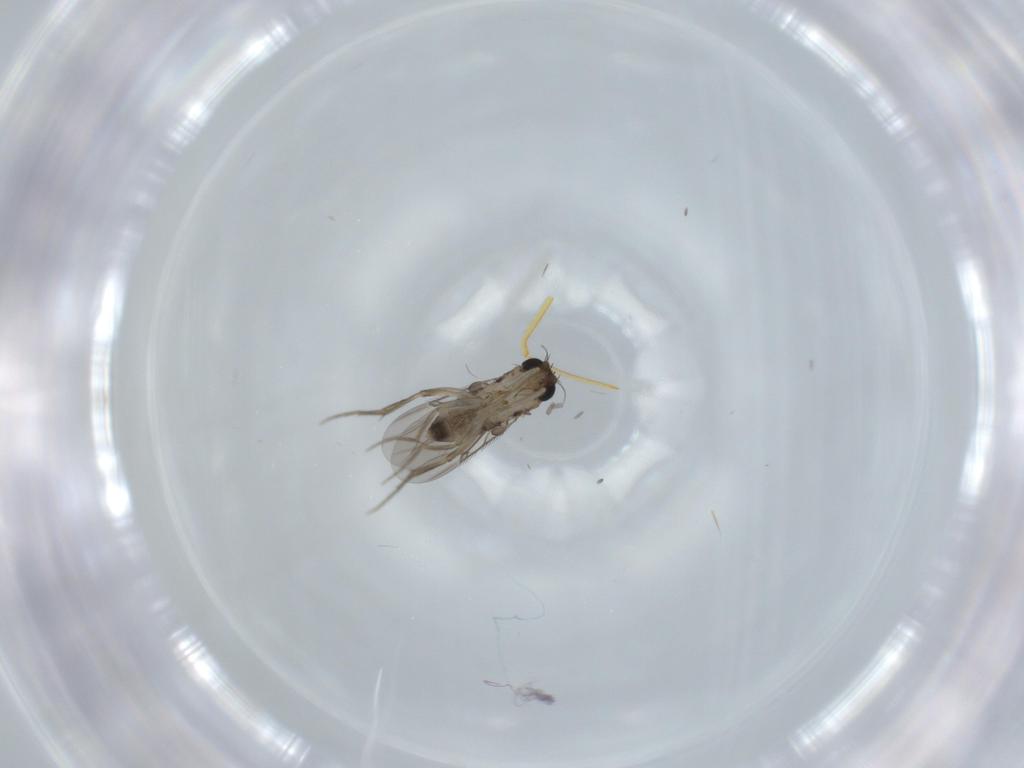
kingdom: Animalia
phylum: Arthropoda
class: Insecta
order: Diptera
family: Phoridae
